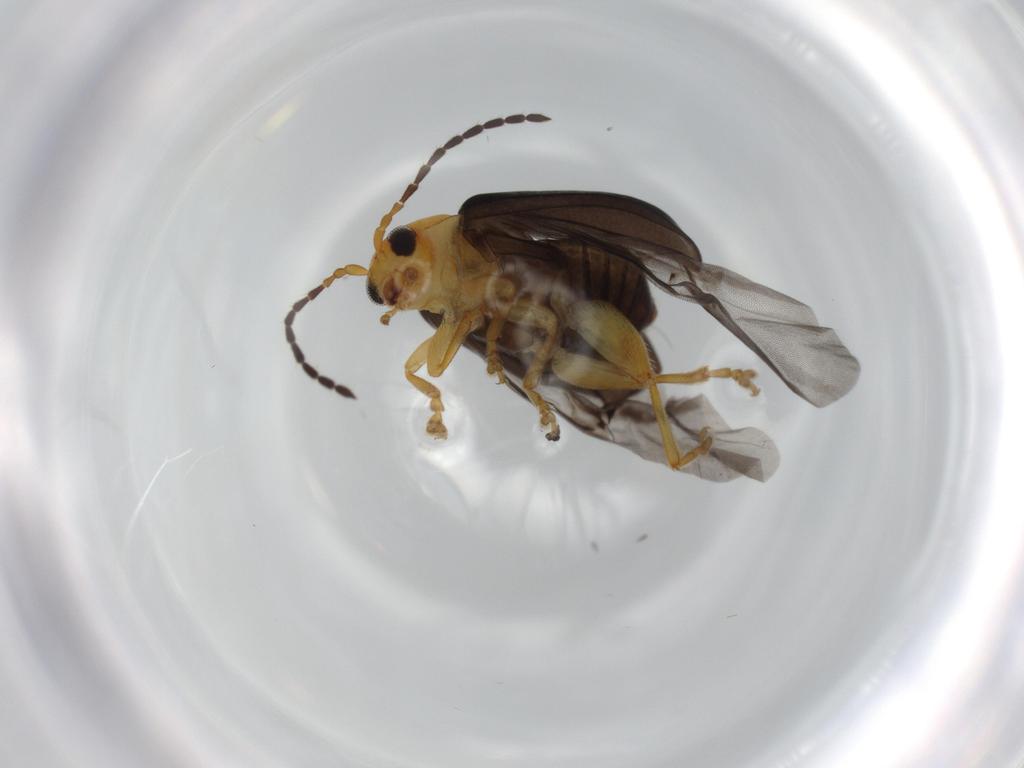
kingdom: Animalia
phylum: Arthropoda
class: Insecta
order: Coleoptera
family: Chrysomelidae
